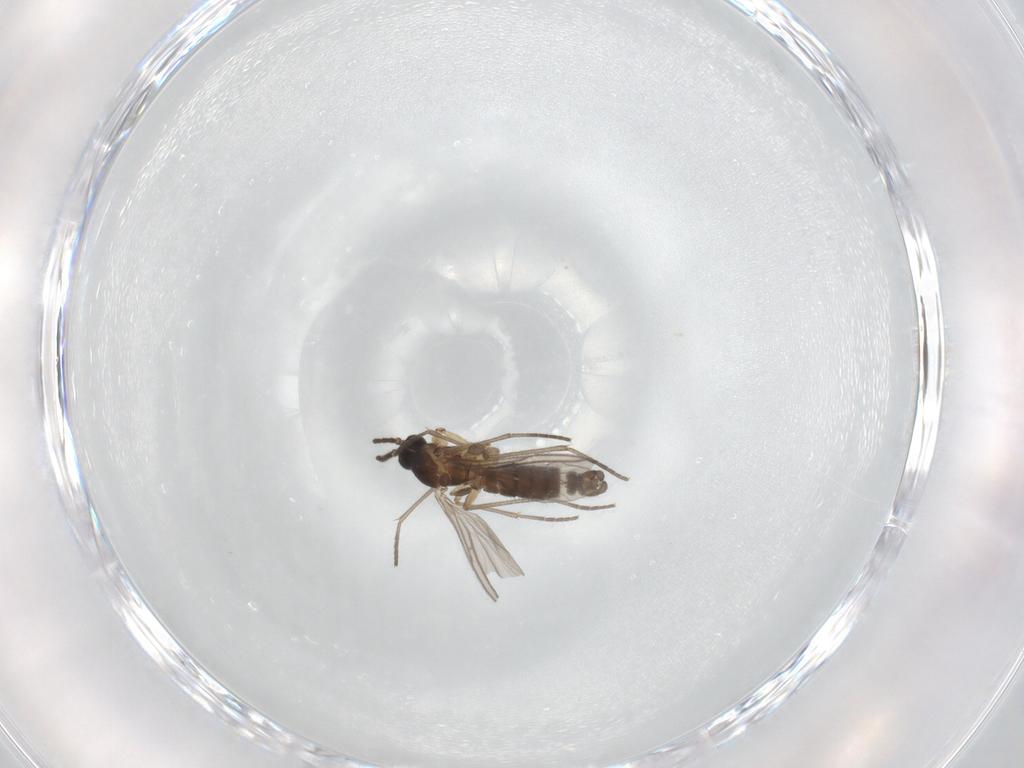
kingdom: Animalia
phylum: Arthropoda
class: Insecta
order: Diptera
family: Sciaridae
